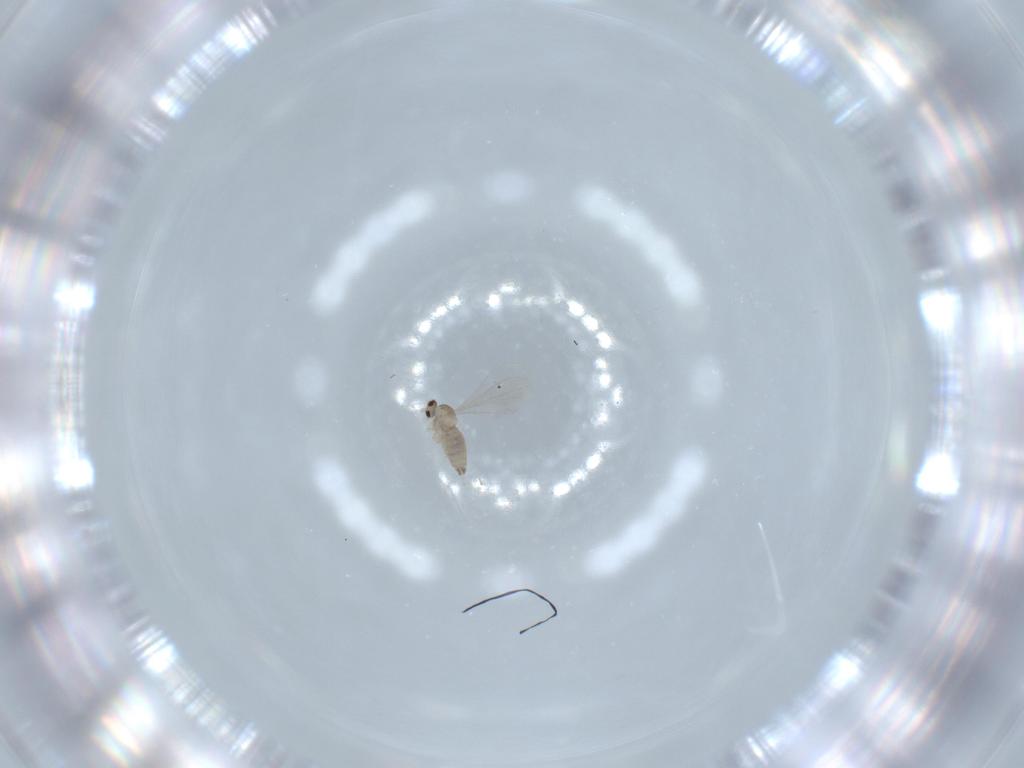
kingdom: Animalia
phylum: Arthropoda
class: Insecta
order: Diptera
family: Cecidomyiidae
